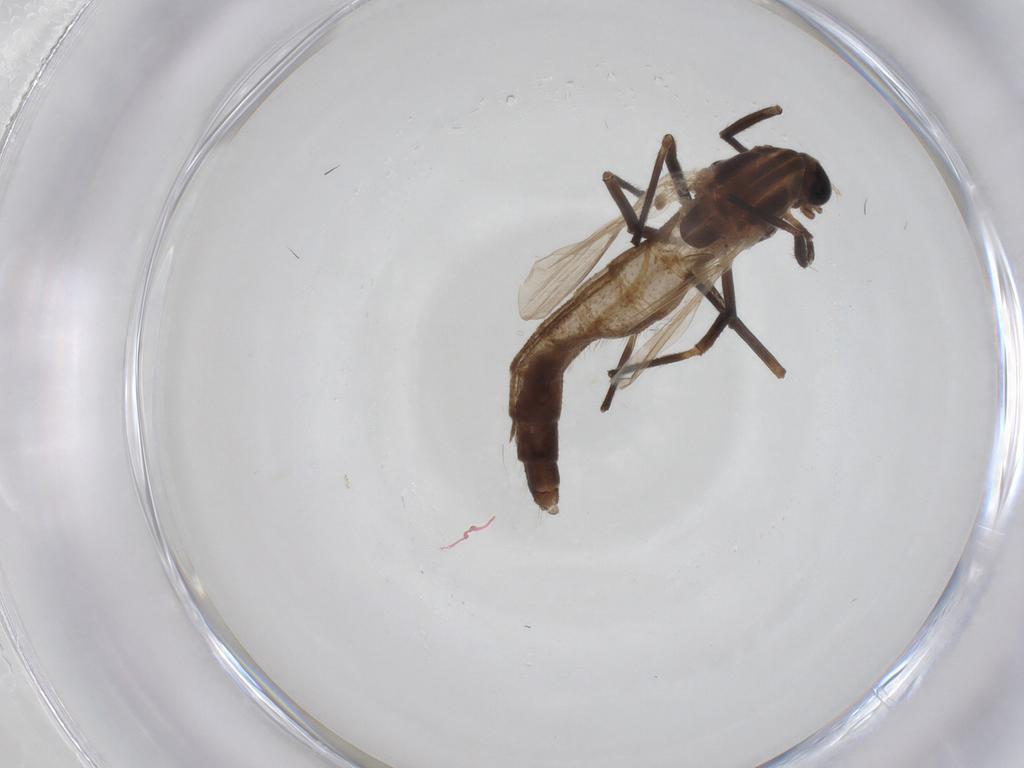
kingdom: Animalia
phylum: Arthropoda
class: Insecta
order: Diptera
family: Chironomidae
